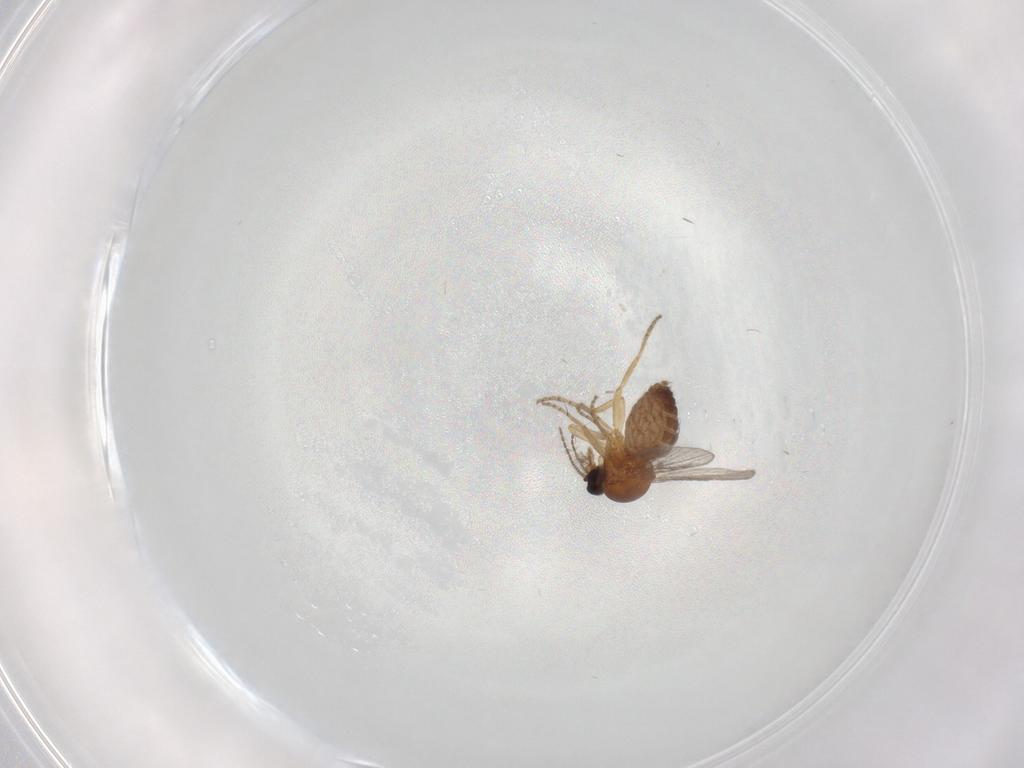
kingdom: Animalia
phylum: Arthropoda
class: Insecta
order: Diptera
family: Ceratopogonidae
